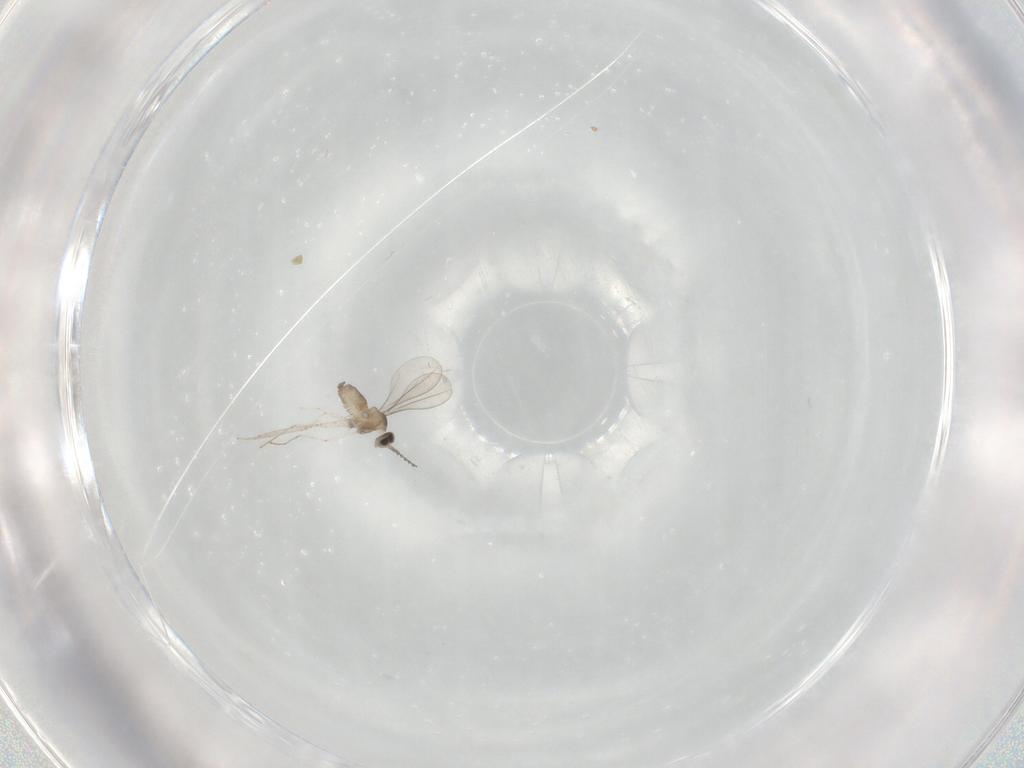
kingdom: Animalia
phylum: Arthropoda
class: Insecta
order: Diptera
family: Cecidomyiidae
